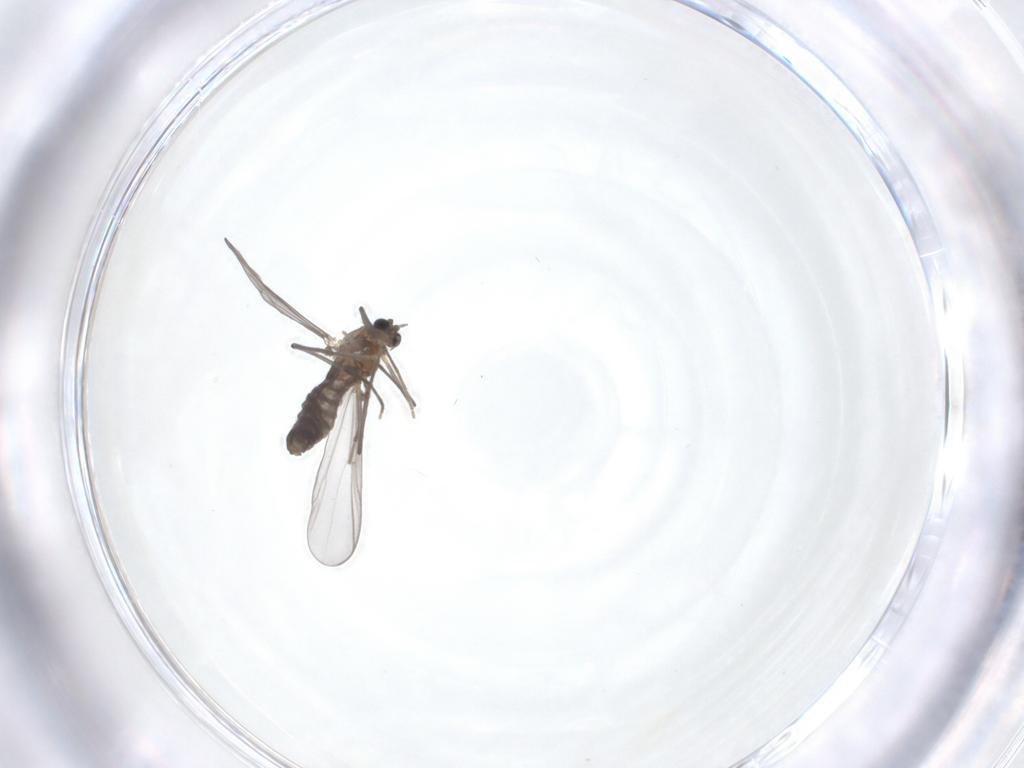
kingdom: Animalia
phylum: Arthropoda
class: Insecta
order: Diptera
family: Chironomidae
